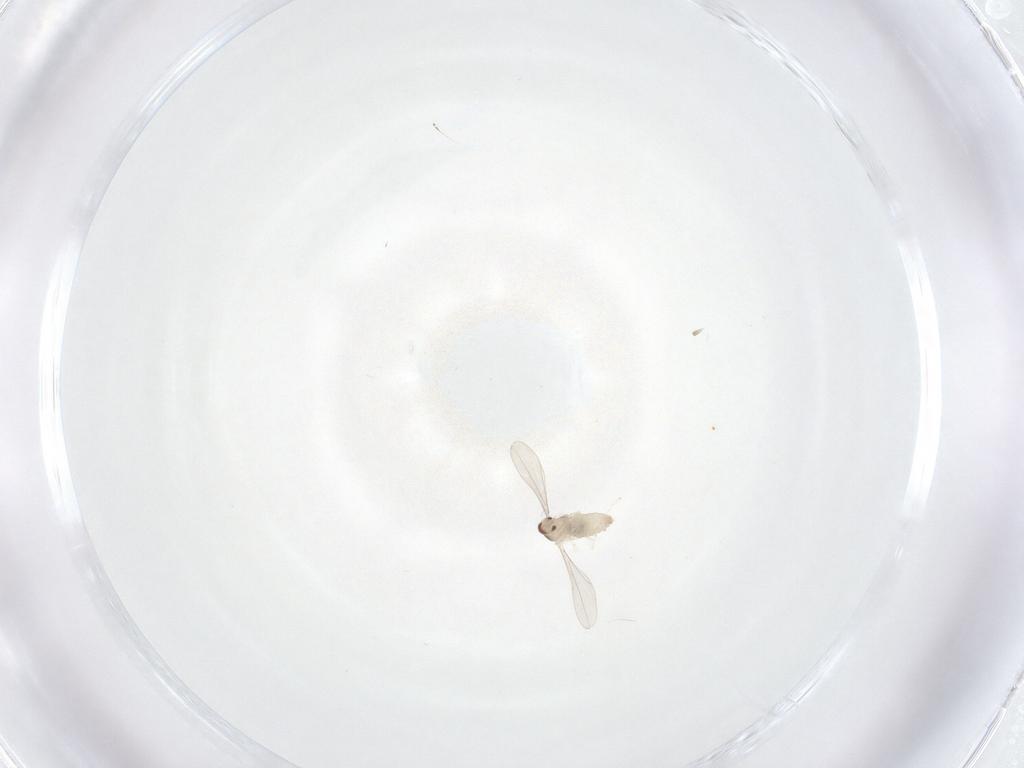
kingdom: Animalia
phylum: Arthropoda
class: Insecta
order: Diptera
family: Cecidomyiidae
